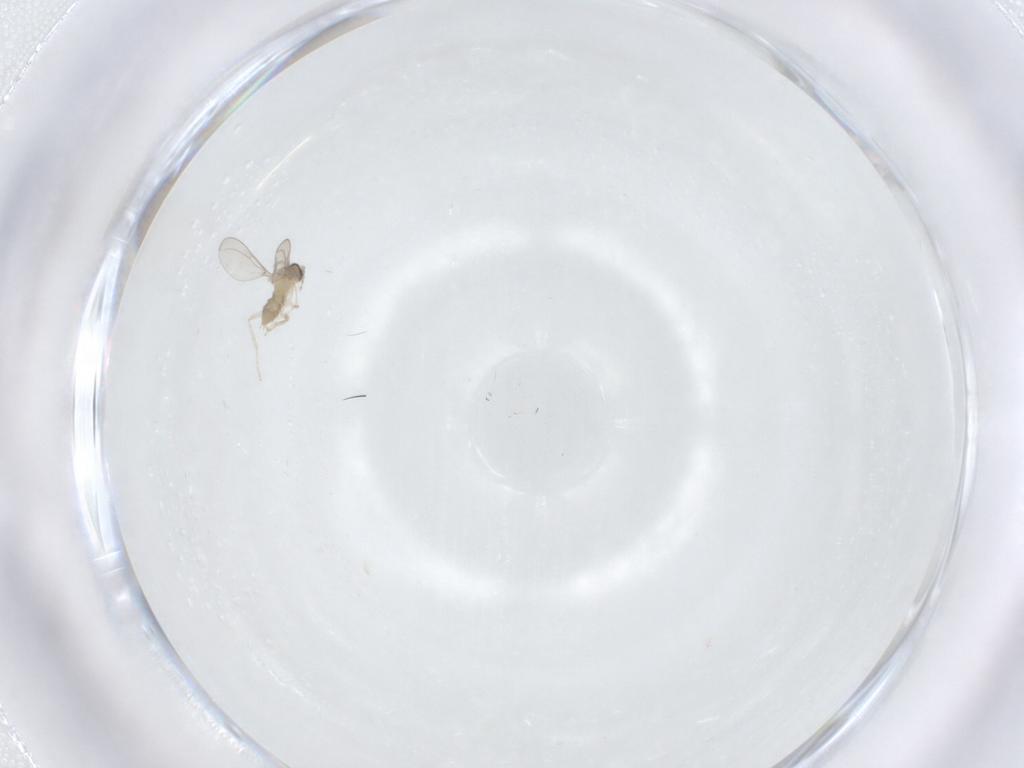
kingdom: Animalia
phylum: Arthropoda
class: Insecta
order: Diptera
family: Cecidomyiidae
